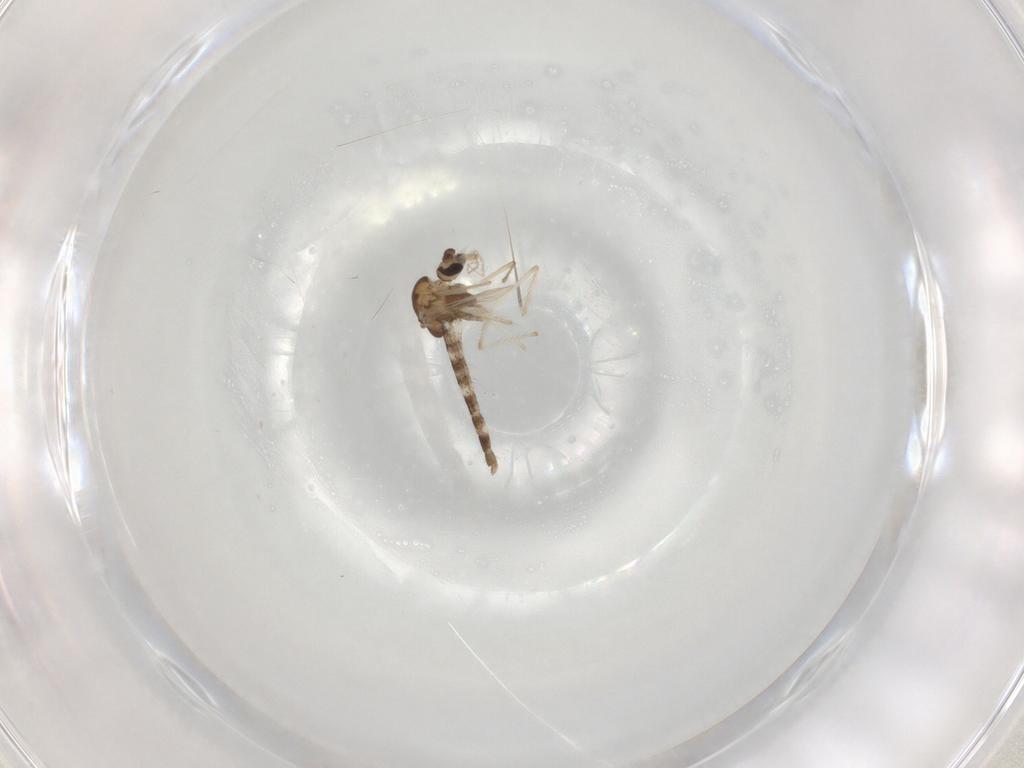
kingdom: Animalia
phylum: Arthropoda
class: Insecta
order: Diptera
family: Chironomidae
